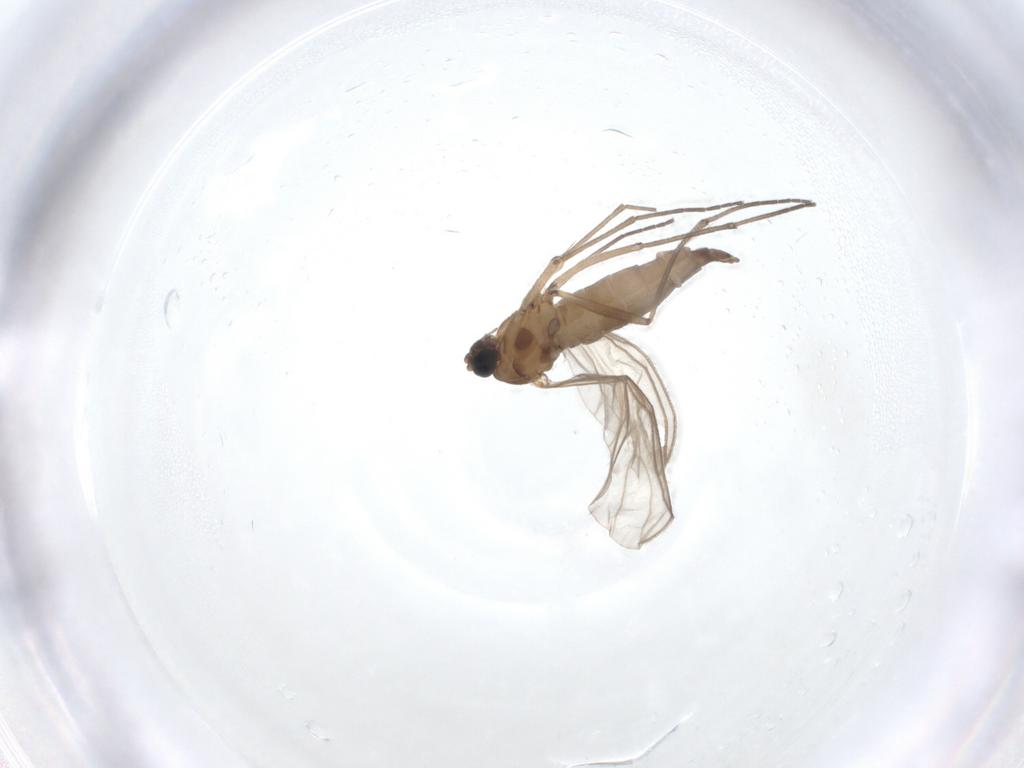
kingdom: Animalia
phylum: Arthropoda
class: Insecta
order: Diptera
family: Sciaridae
